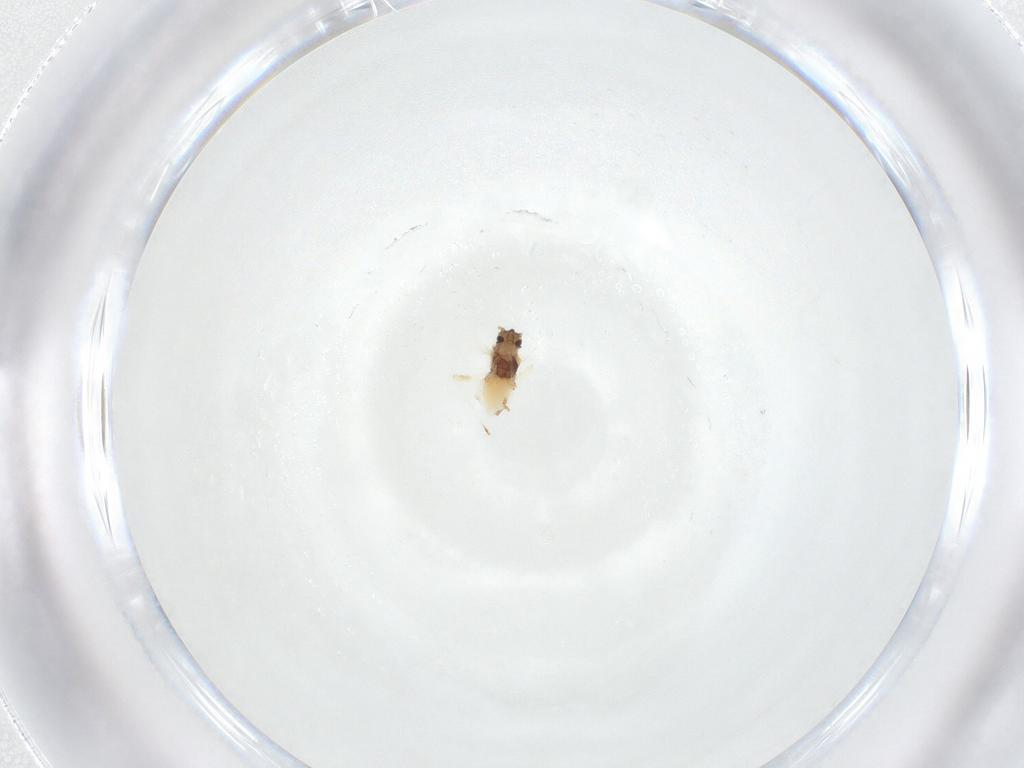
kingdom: Animalia
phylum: Arthropoda
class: Insecta
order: Hemiptera
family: Aphididae
